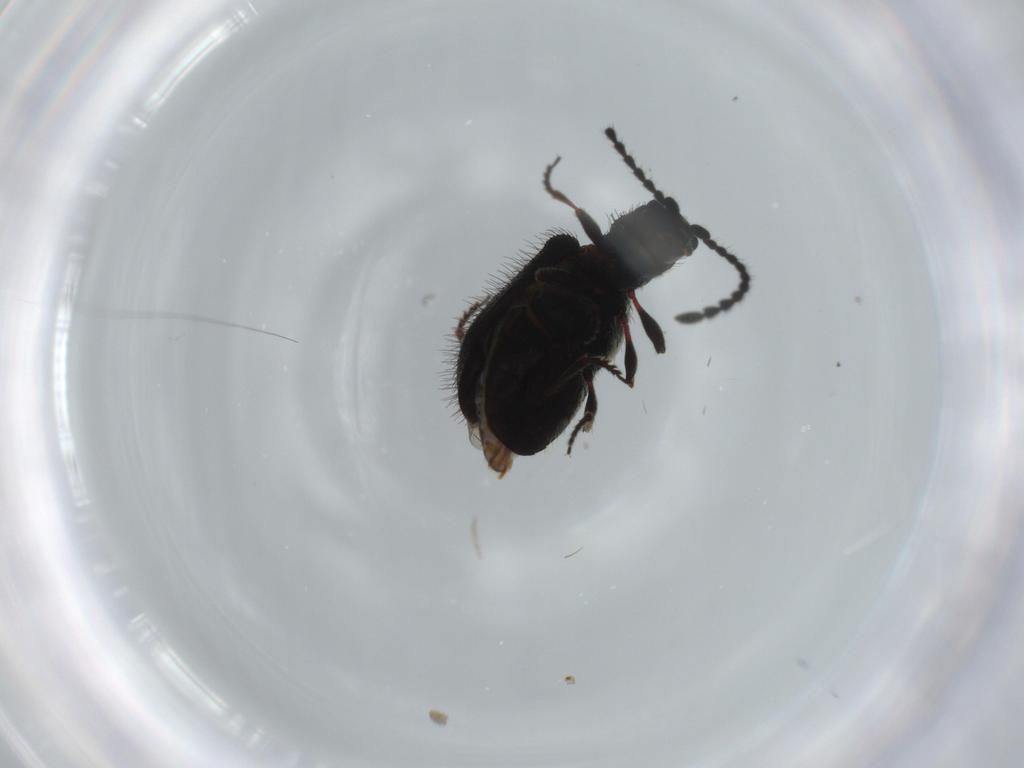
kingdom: Animalia
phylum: Arthropoda
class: Insecta
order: Coleoptera
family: Ptinidae
